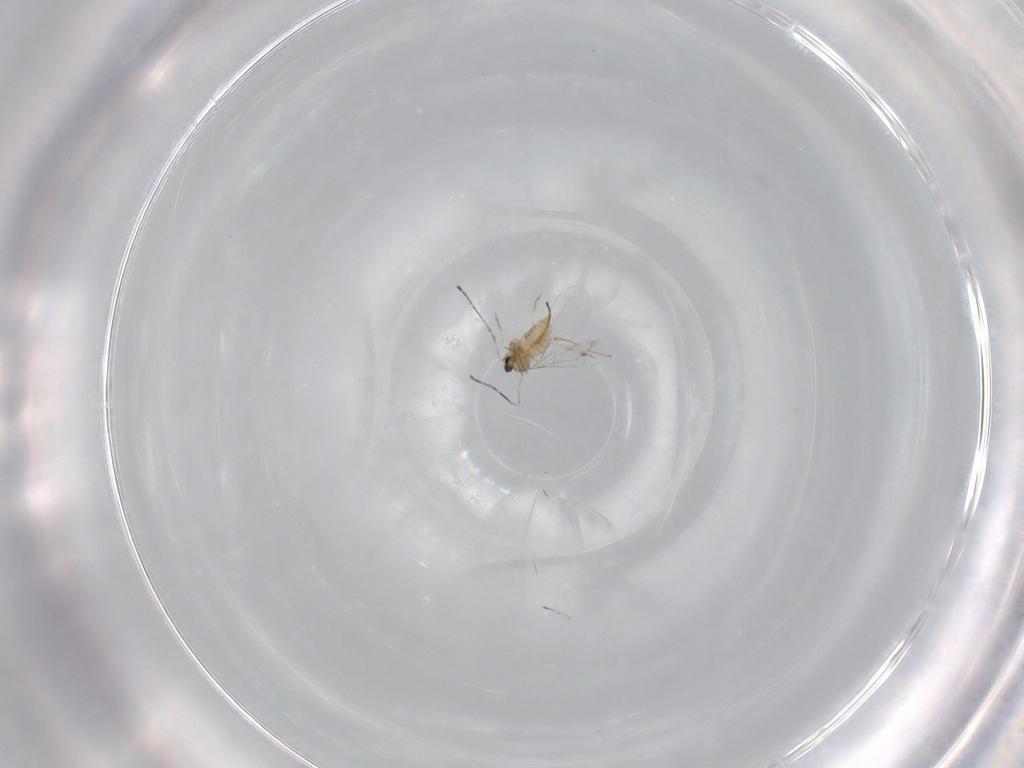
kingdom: Animalia
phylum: Arthropoda
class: Insecta
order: Diptera
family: Cecidomyiidae
